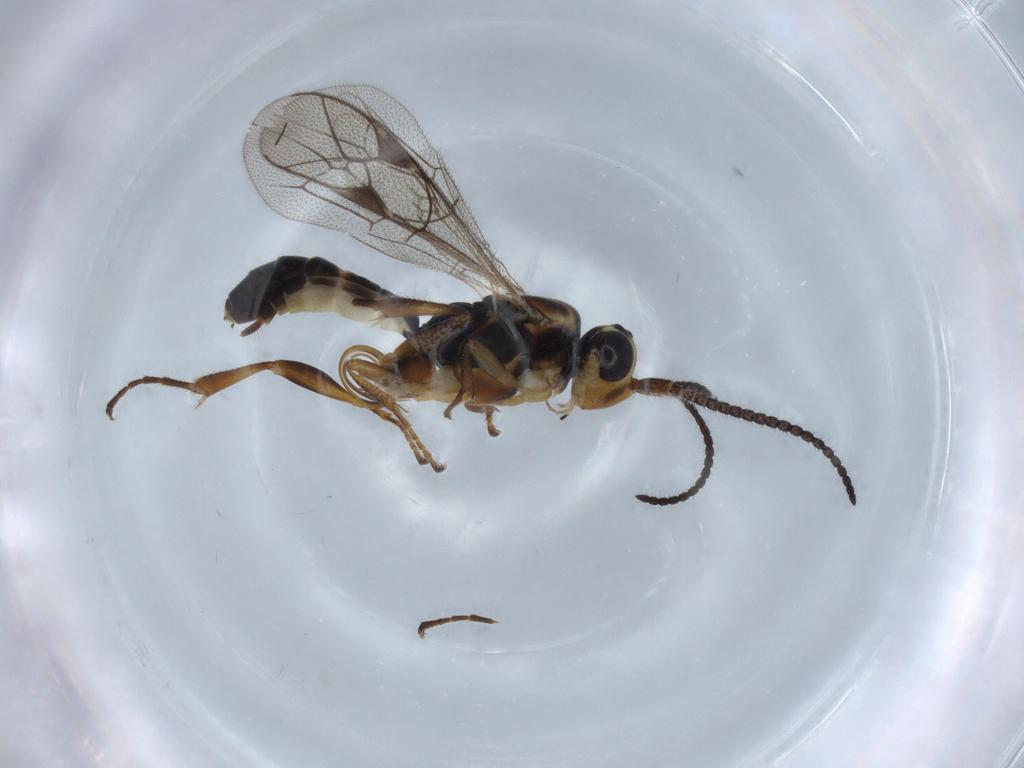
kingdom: Animalia
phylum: Arthropoda
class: Insecta
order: Hymenoptera
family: Ichneumonidae
